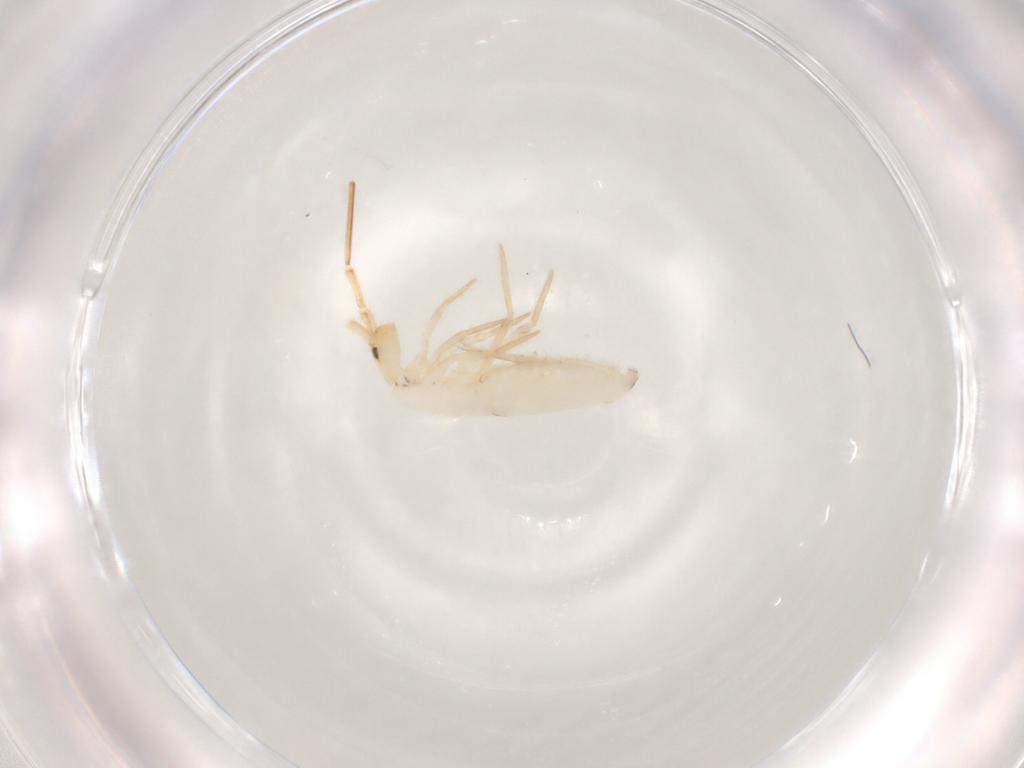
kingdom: Animalia
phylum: Arthropoda
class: Collembola
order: Entomobryomorpha
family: Entomobryidae
